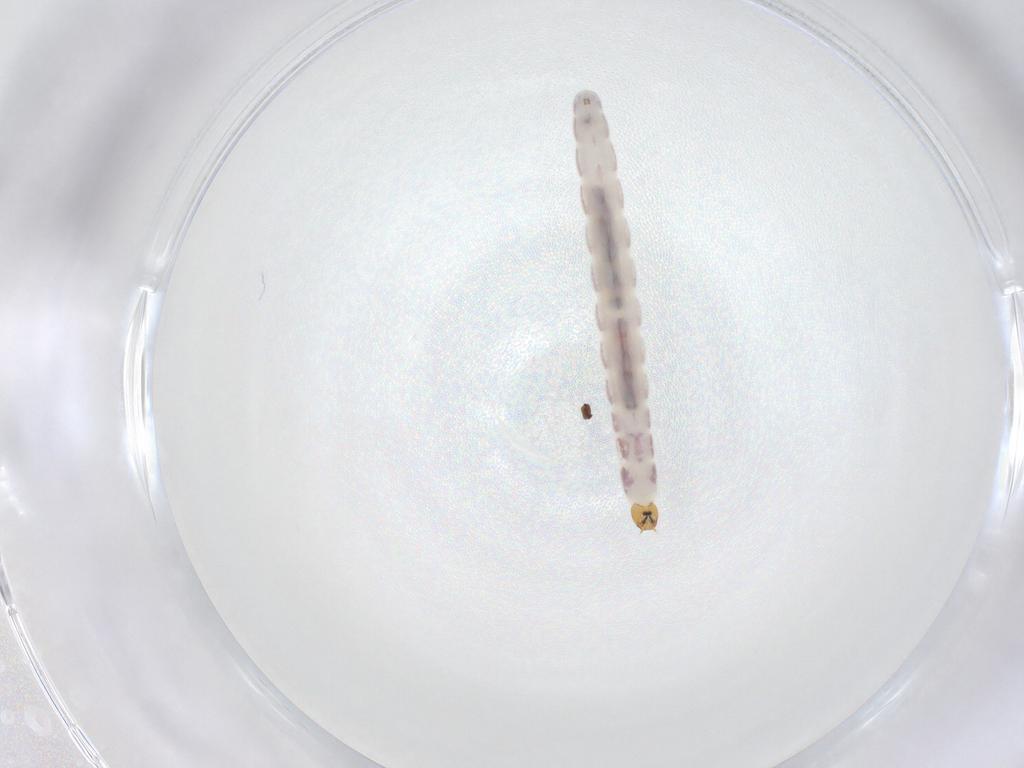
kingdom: Animalia
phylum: Arthropoda
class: Insecta
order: Diptera
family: Chironomidae
